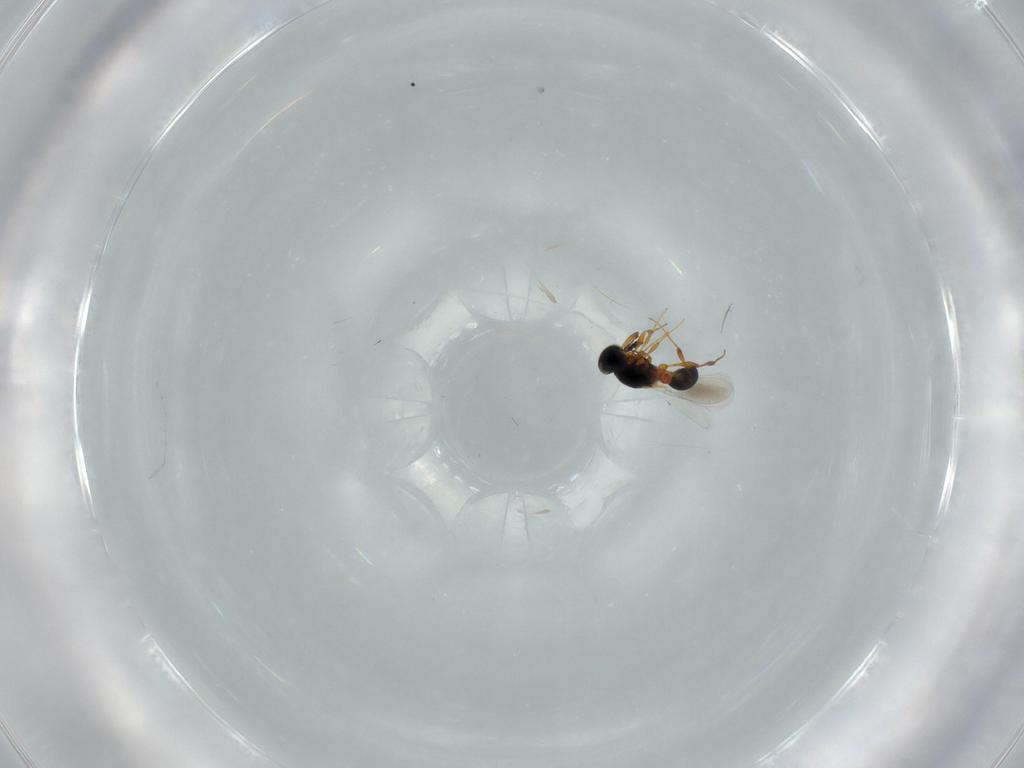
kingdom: Animalia
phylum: Arthropoda
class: Insecta
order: Hymenoptera
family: Platygastridae
